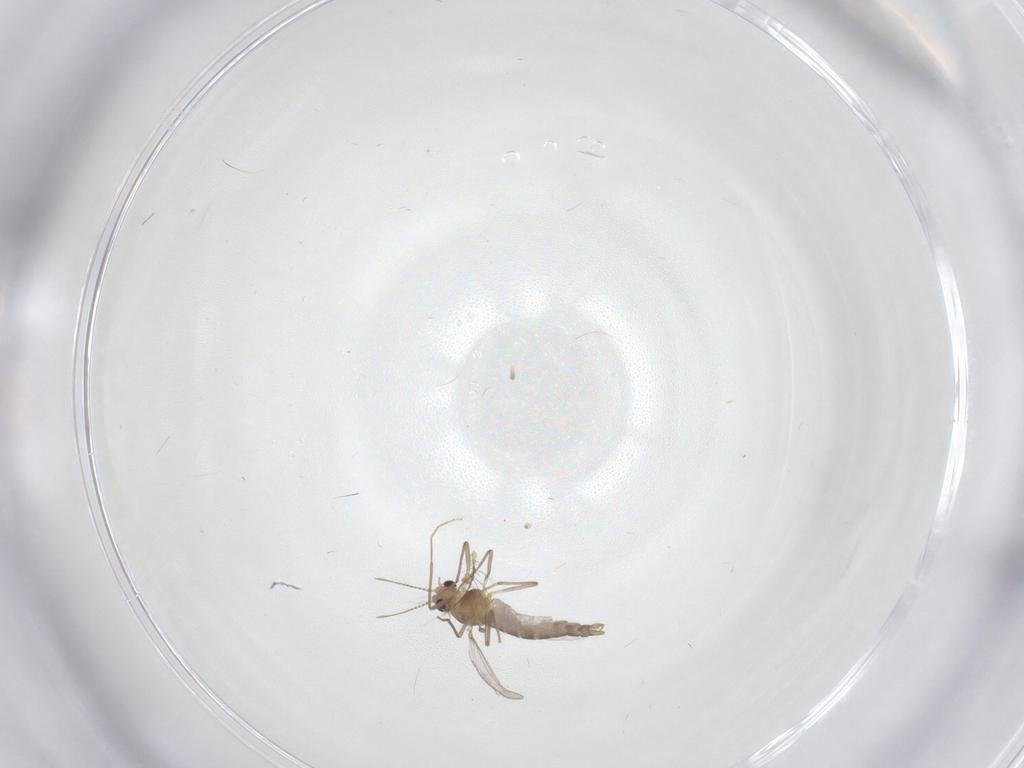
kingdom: Animalia
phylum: Arthropoda
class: Insecta
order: Diptera
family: Chironomidae
